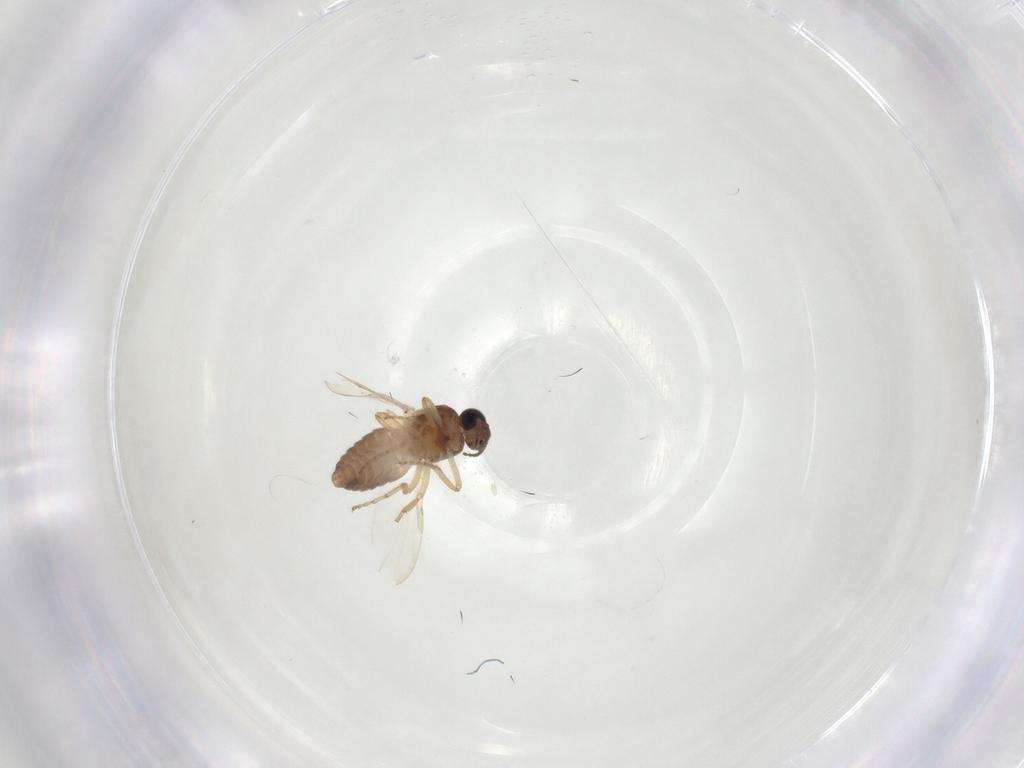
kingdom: Animalia
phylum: Arthropoda
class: Insecta
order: Diptera
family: Ceratopogonidae
